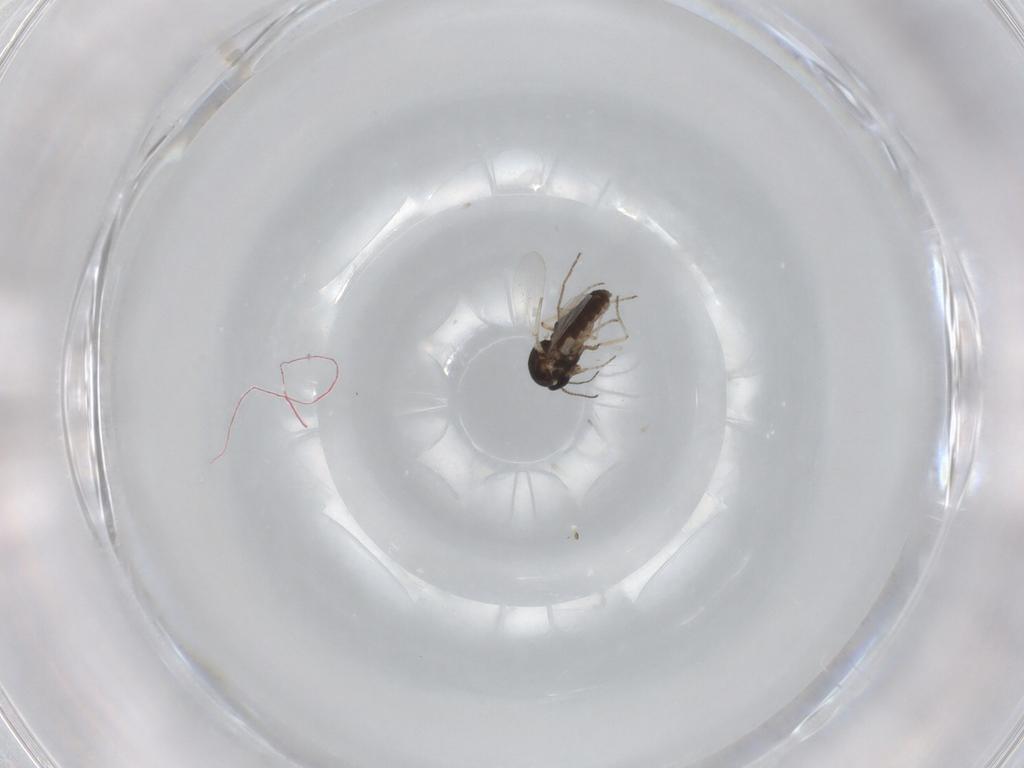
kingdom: Animalia
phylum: Arthropoda
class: Insecta
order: Diptera
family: Ceratopogonidae
